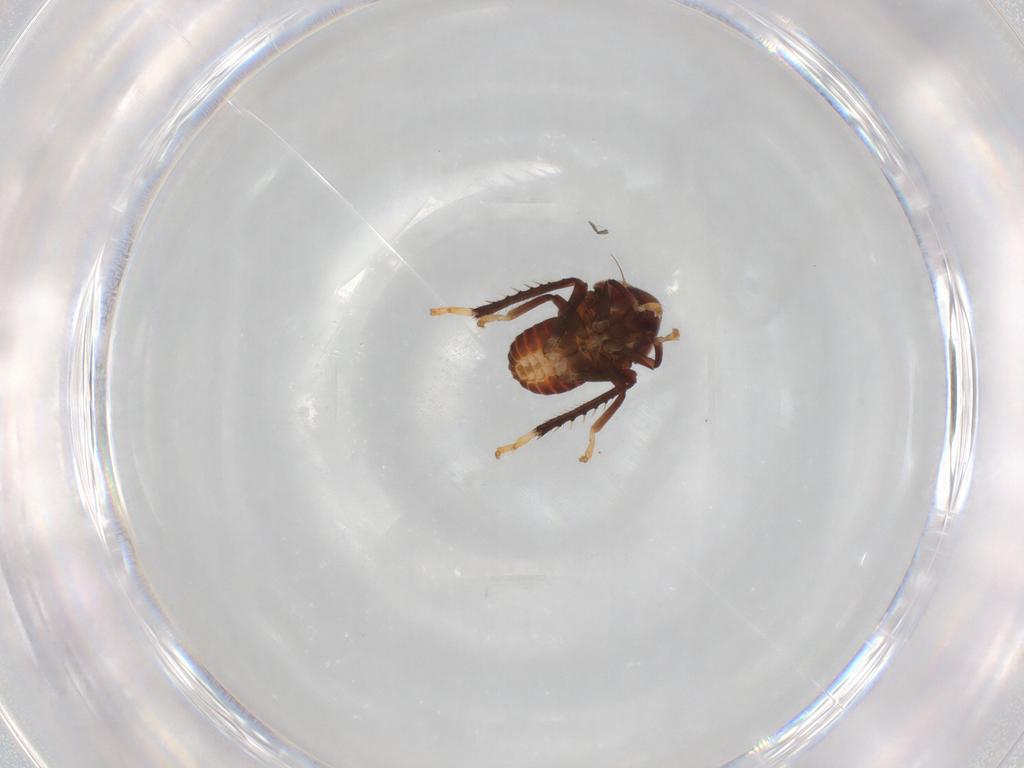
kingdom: Animalia
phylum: Arthropoda
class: Insecta
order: Hemiptera
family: Cicadellidae
